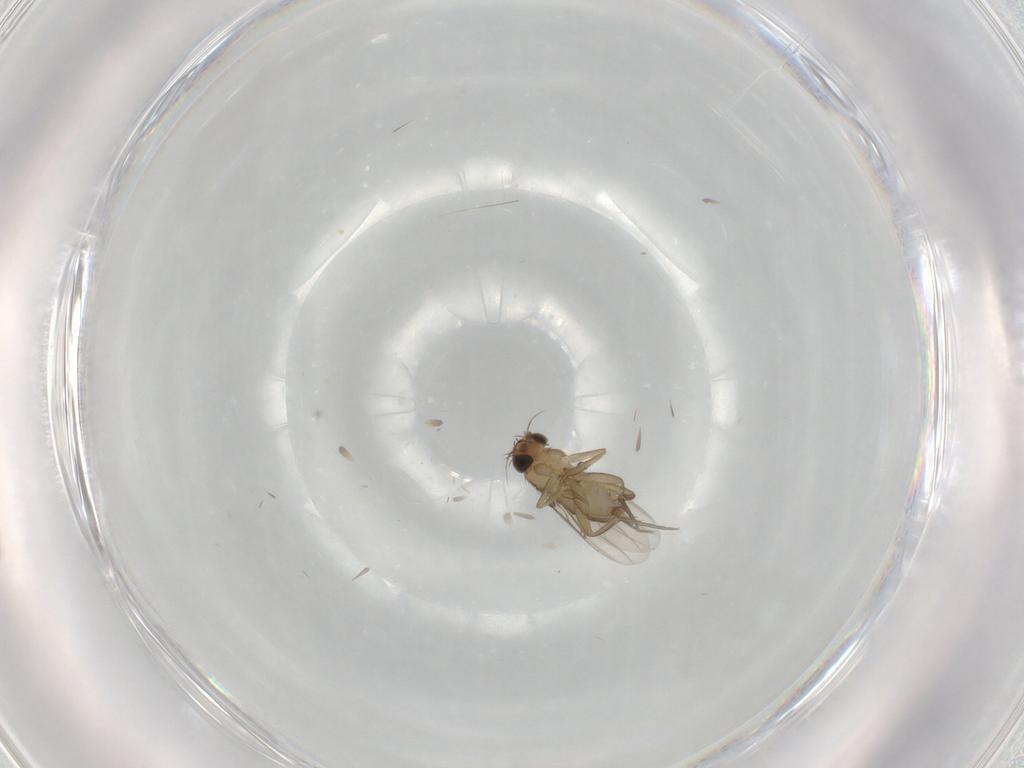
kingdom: Animalia
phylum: Arthropoda
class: Insecta
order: Diptera
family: Phoridae
